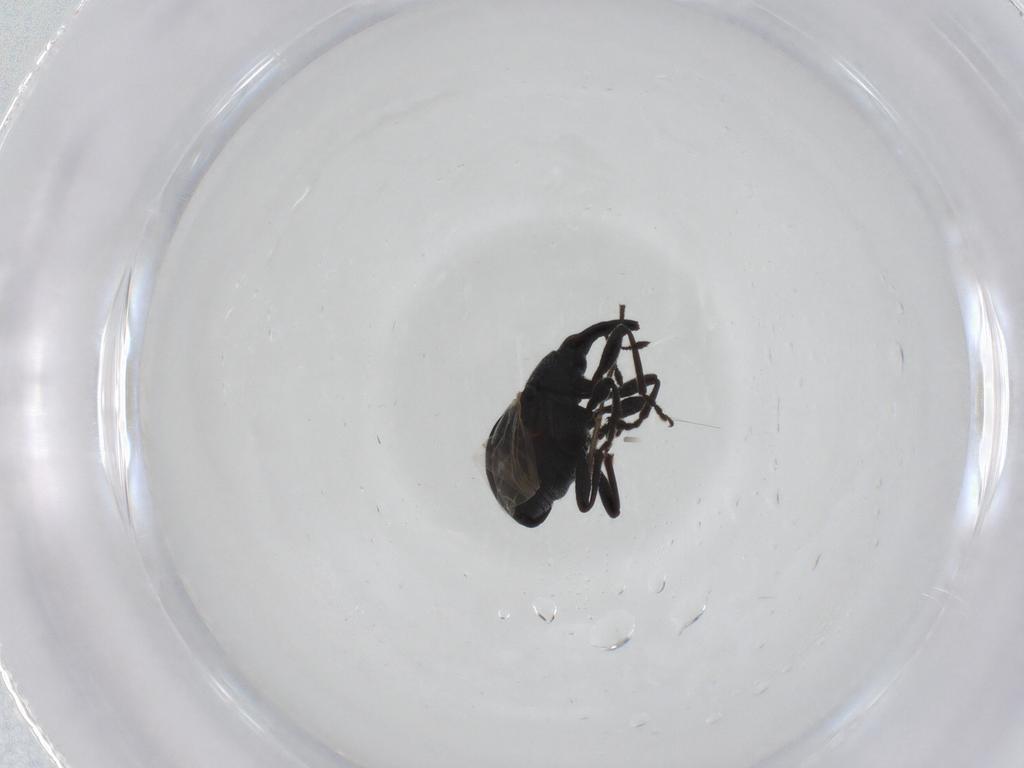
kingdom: Animalia
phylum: Arthropoda
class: Insecta
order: Coleoptera
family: Brentidae
